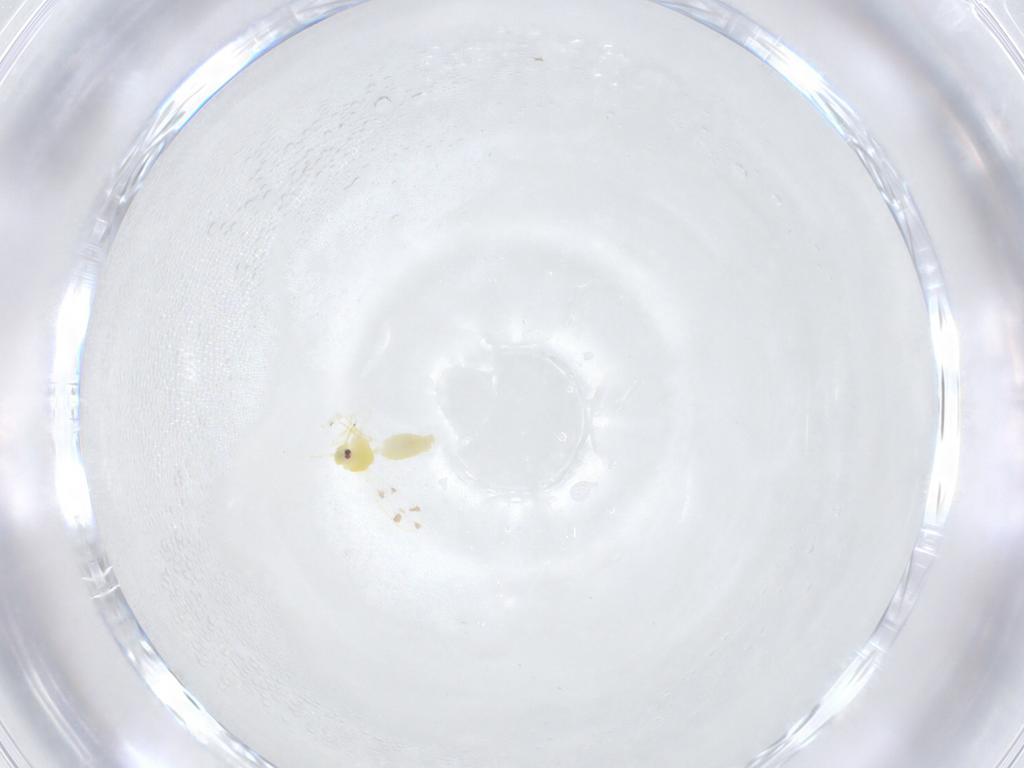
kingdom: Animalia
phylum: Arthropoda
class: Insecta
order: Hemiptera
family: Aleyrodidae
